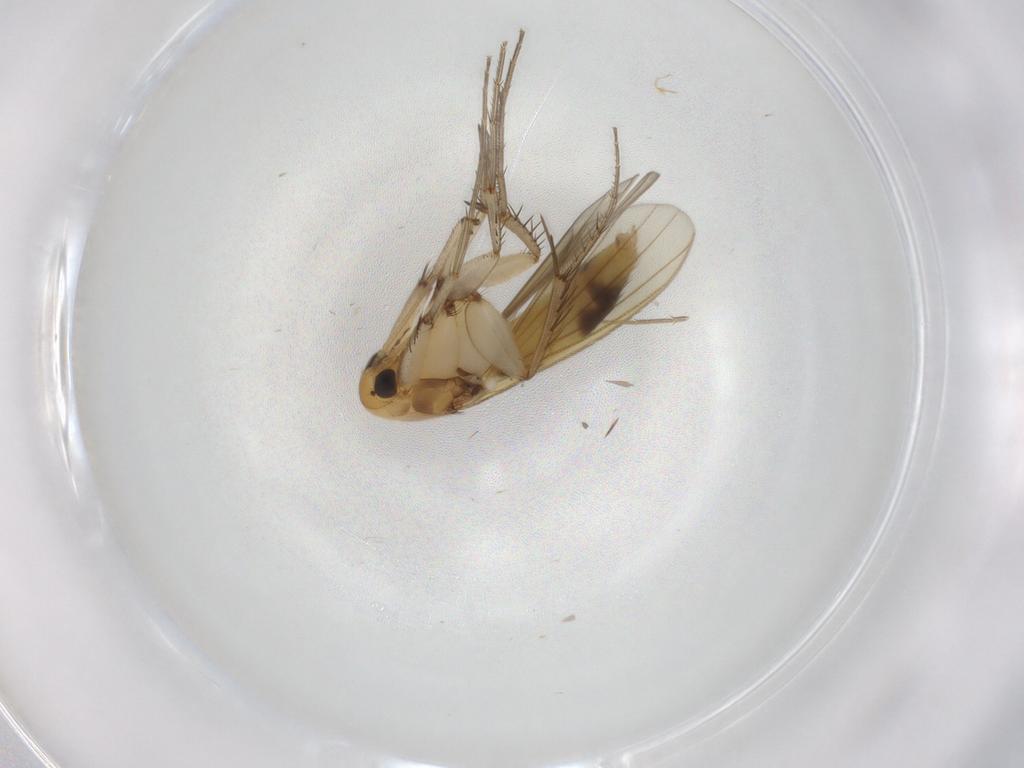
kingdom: Animalia
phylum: Arthropoda
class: Insecta
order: Diptera
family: Mycetophilidae
